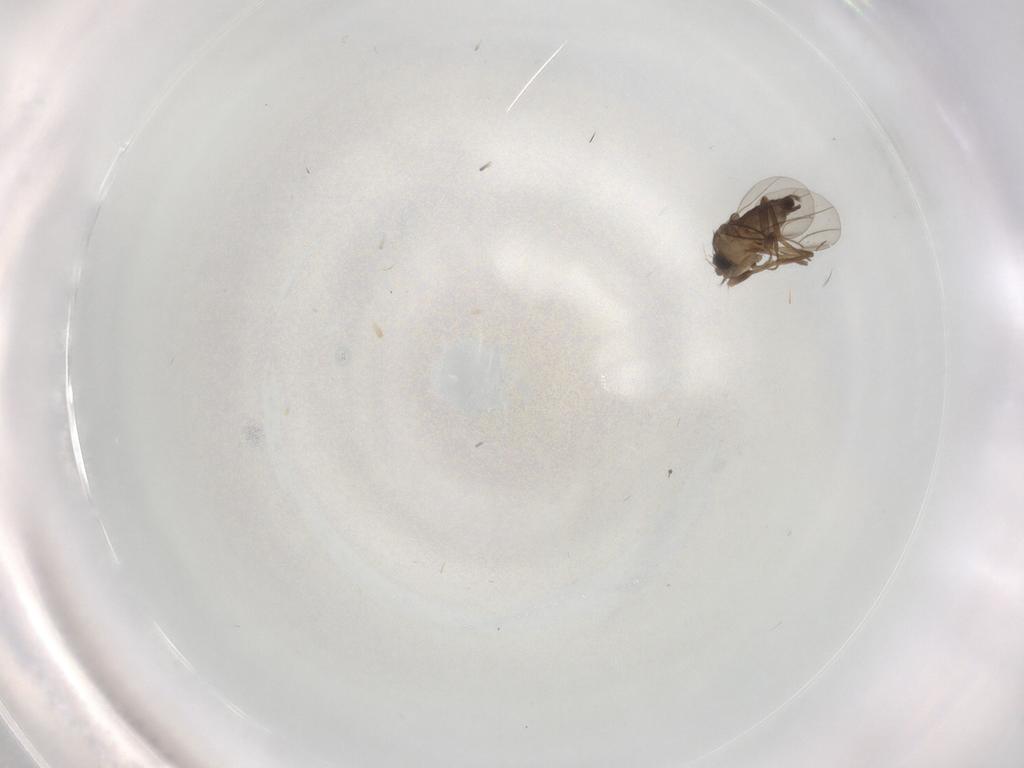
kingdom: Animalia
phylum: Arthropoda
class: Insecta
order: Diptera
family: Phoridae
